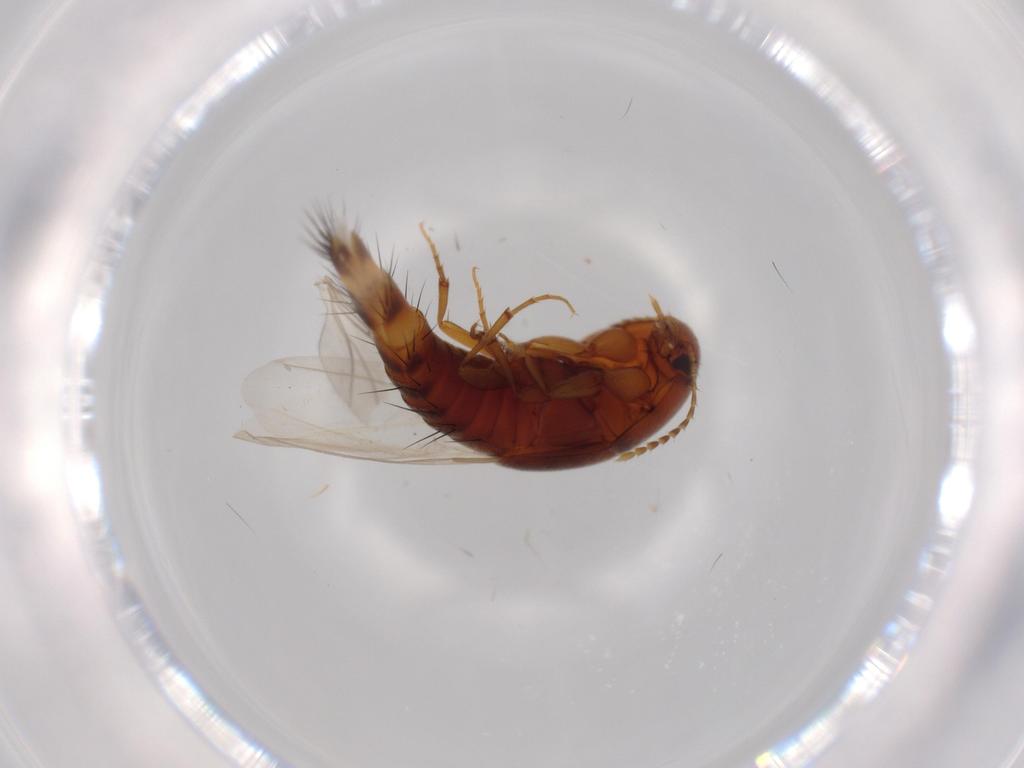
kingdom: Animalia
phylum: Arthropoda
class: Insecta
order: Coleoptera
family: Staphylinidae
